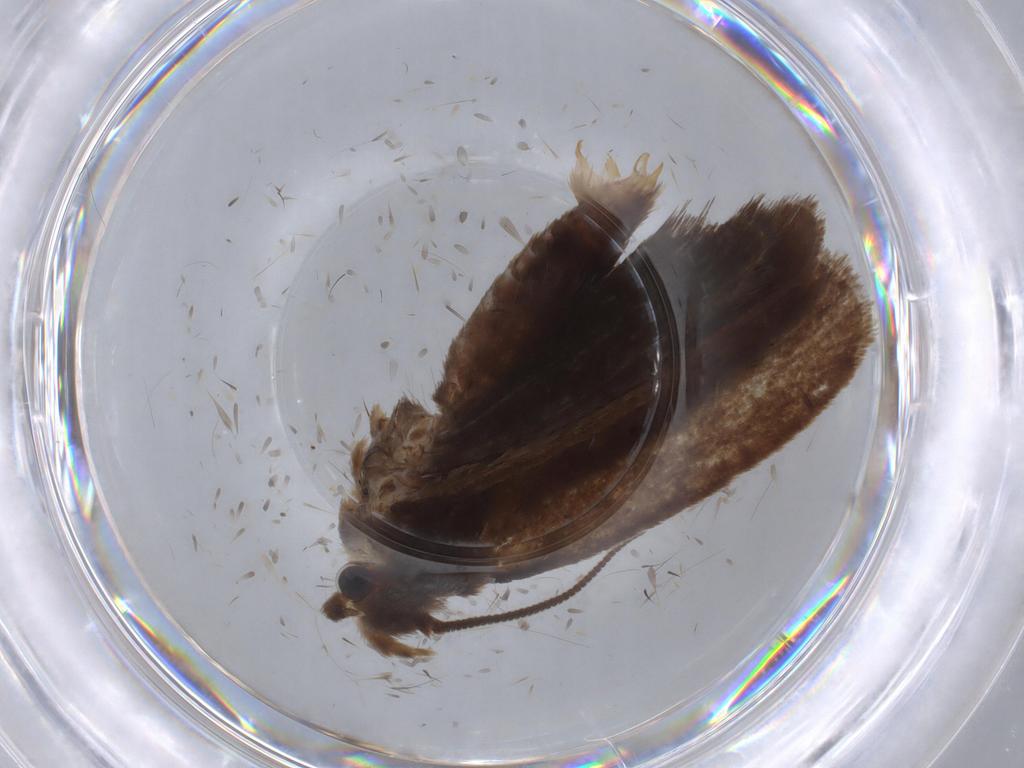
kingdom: Animalia
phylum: Arthropoda
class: Insecta
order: Lepidoptera
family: Tineidae
